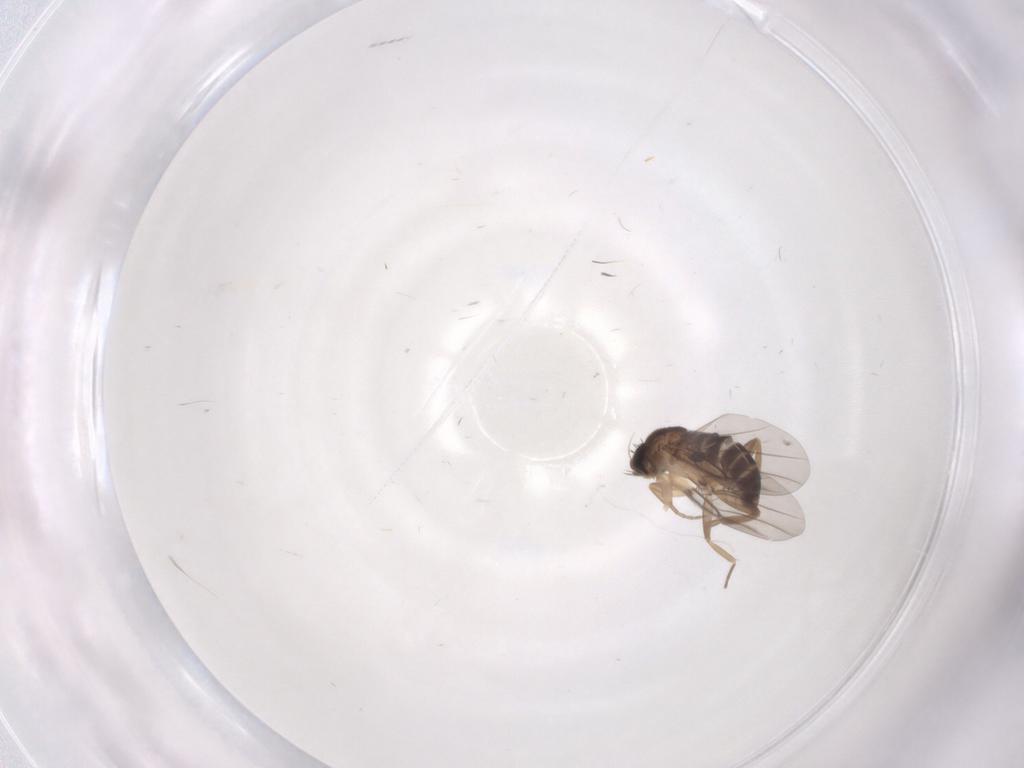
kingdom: Animalia
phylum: Arthropoda
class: Insecta
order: Diptera
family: Psychodidae
